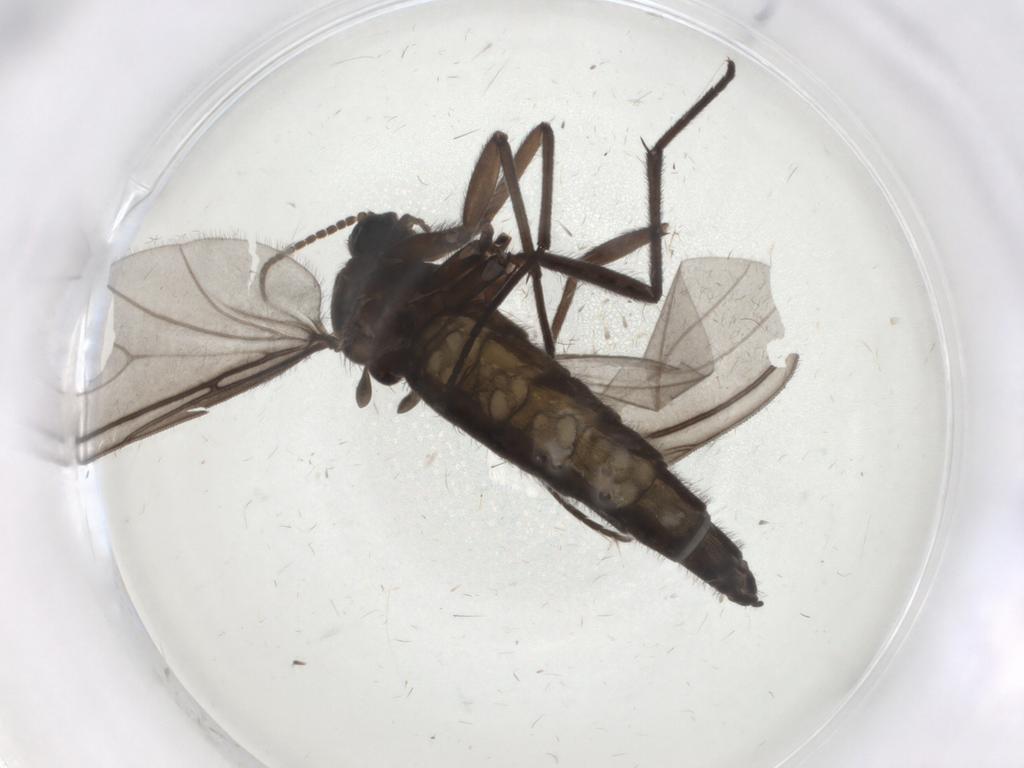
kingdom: Animalia
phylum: Arthropoda
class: Insecta
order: Diptera
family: Sciaridae
